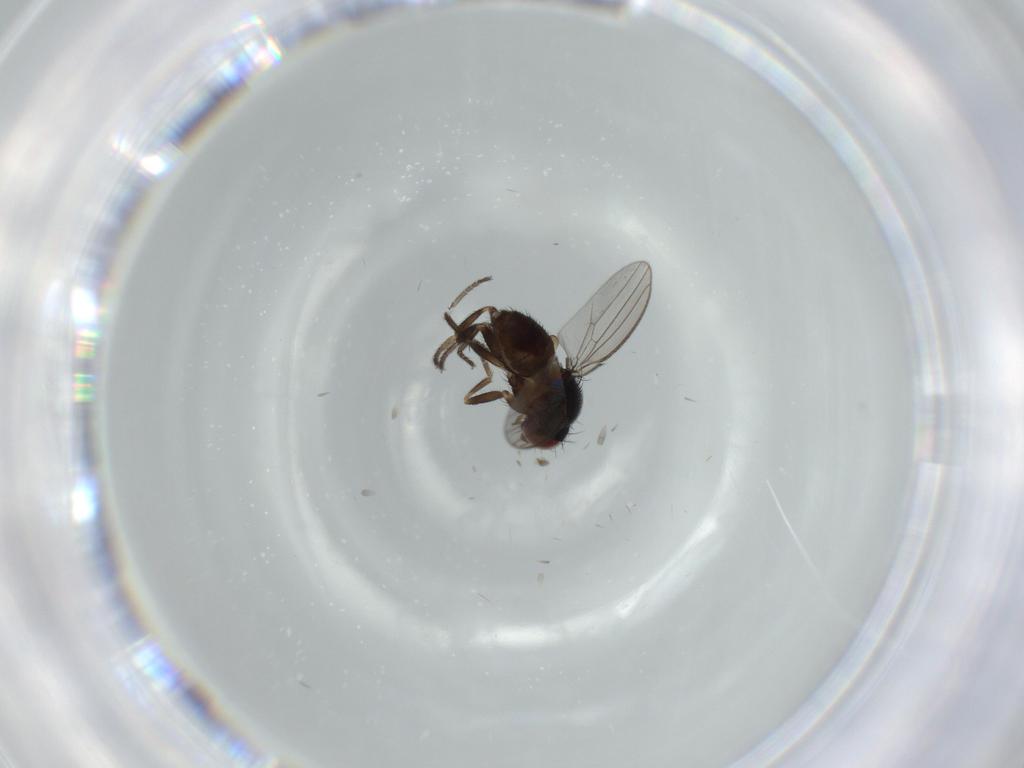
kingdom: Animalia
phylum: Arthropoda
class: Insecta
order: Diptera
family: Milichiidae
